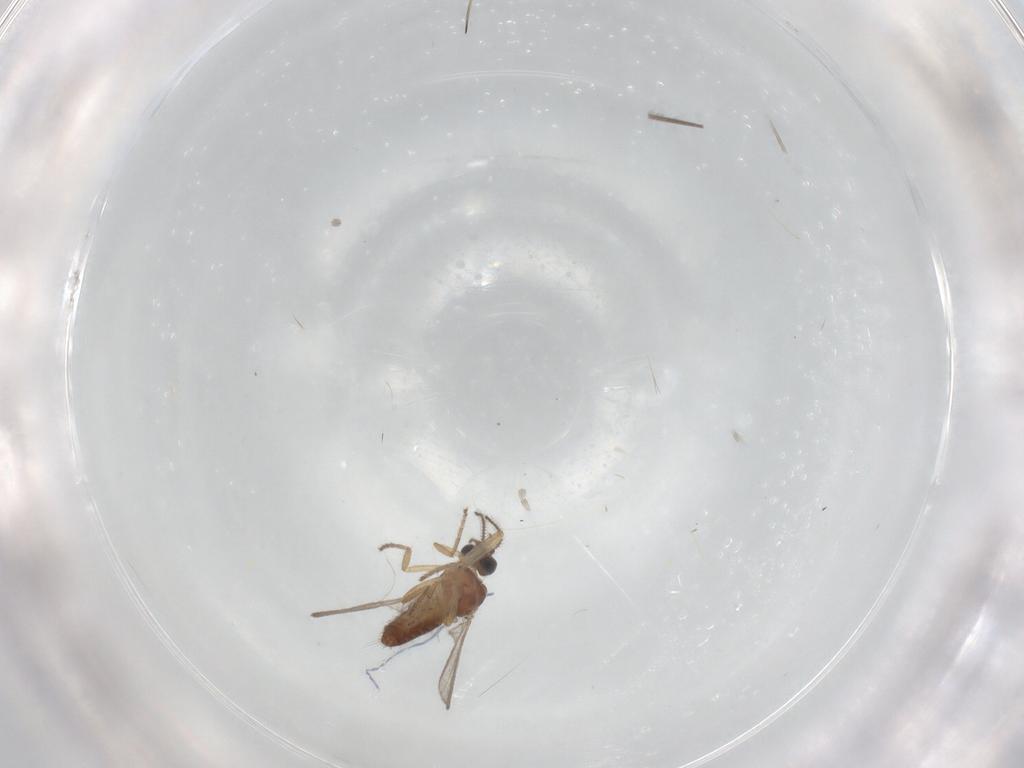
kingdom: Animalia
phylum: Arthropoda
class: Insecta
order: Diptera
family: Ceratopogonidae
